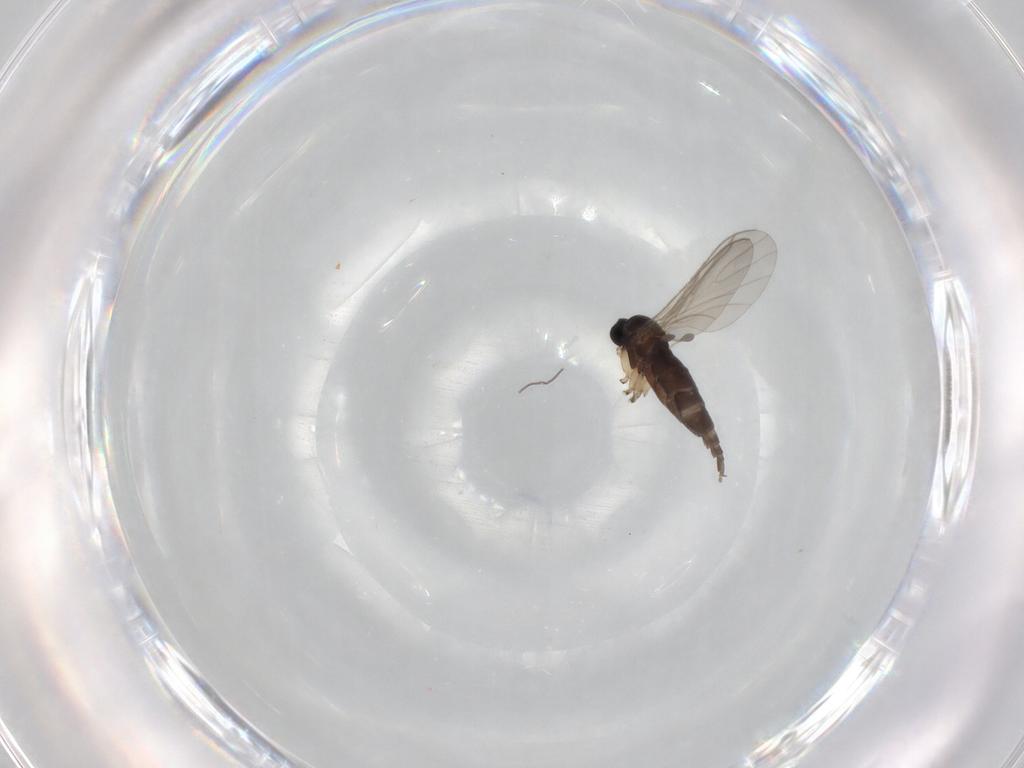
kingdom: Animalia
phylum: Arthropoda
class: Insecta
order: Diptera
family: Sciaridae
